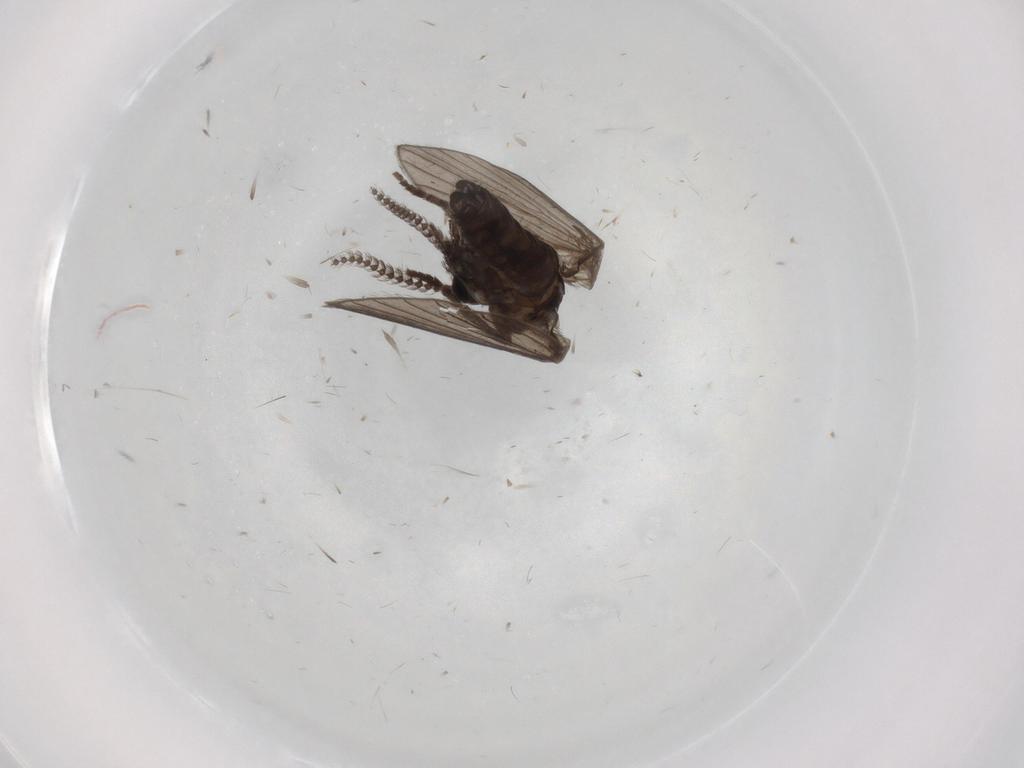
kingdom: Animalia
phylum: Arthropoda
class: Insecta
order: Diptera
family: Psychodidae
